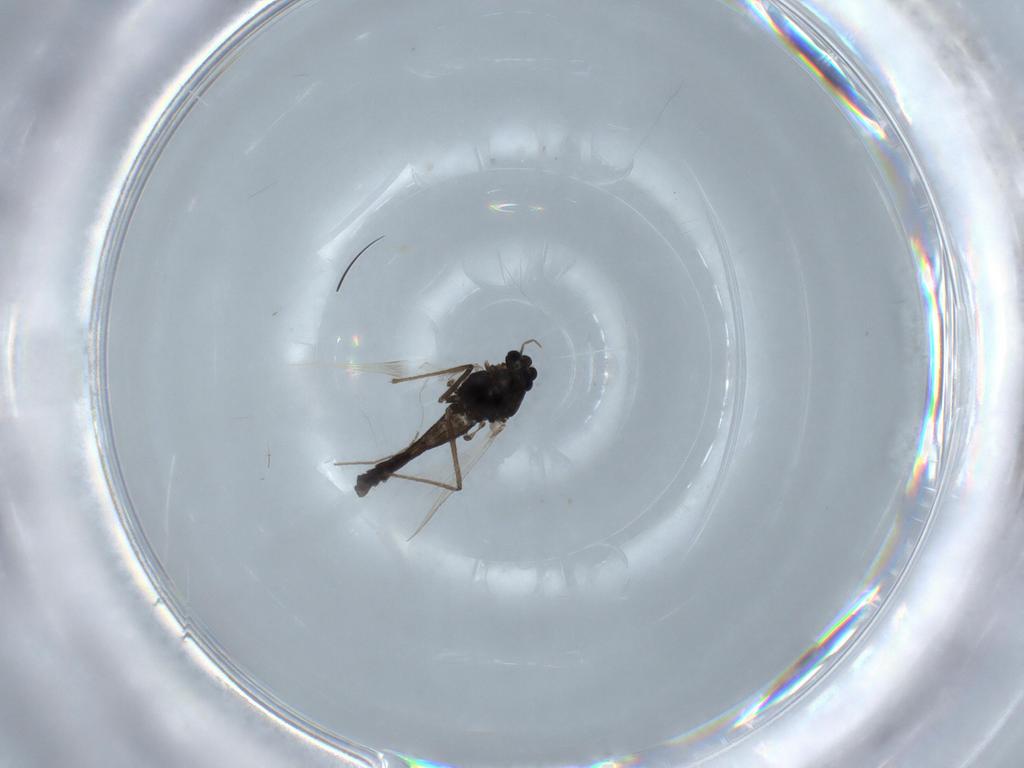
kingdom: Animalia
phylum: Arthropoda
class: Insecta
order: Diptera
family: Chironomidae
